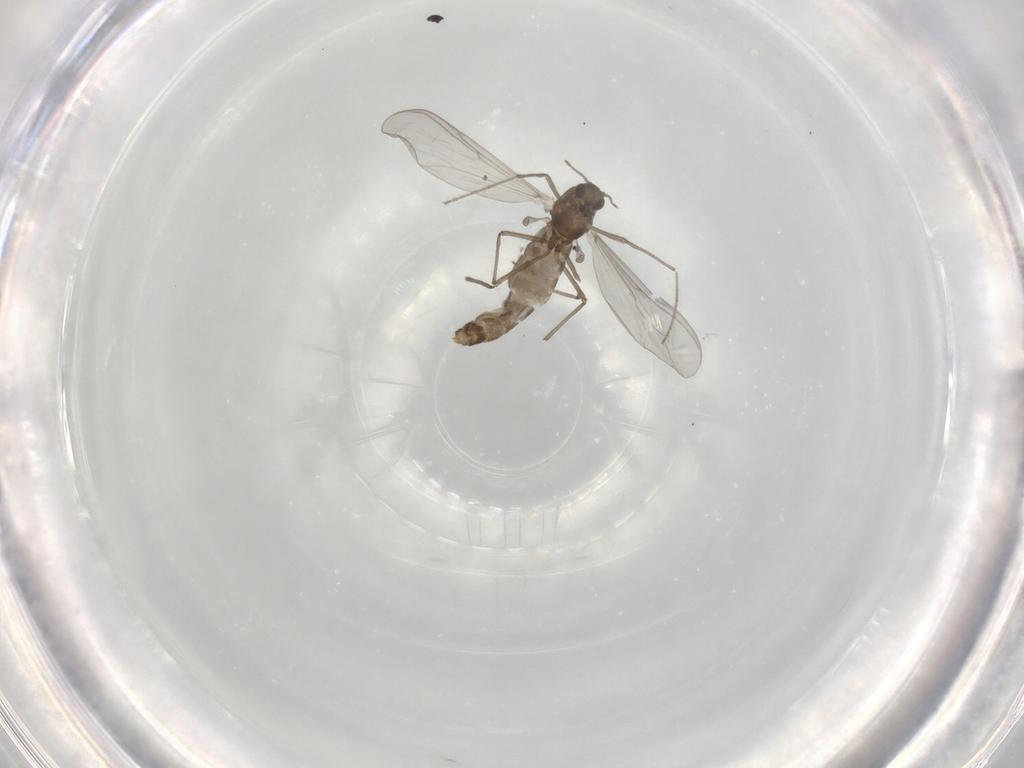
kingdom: Animalia
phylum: Arthropoda
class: Insecta
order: Diptera
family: Chironomidae
